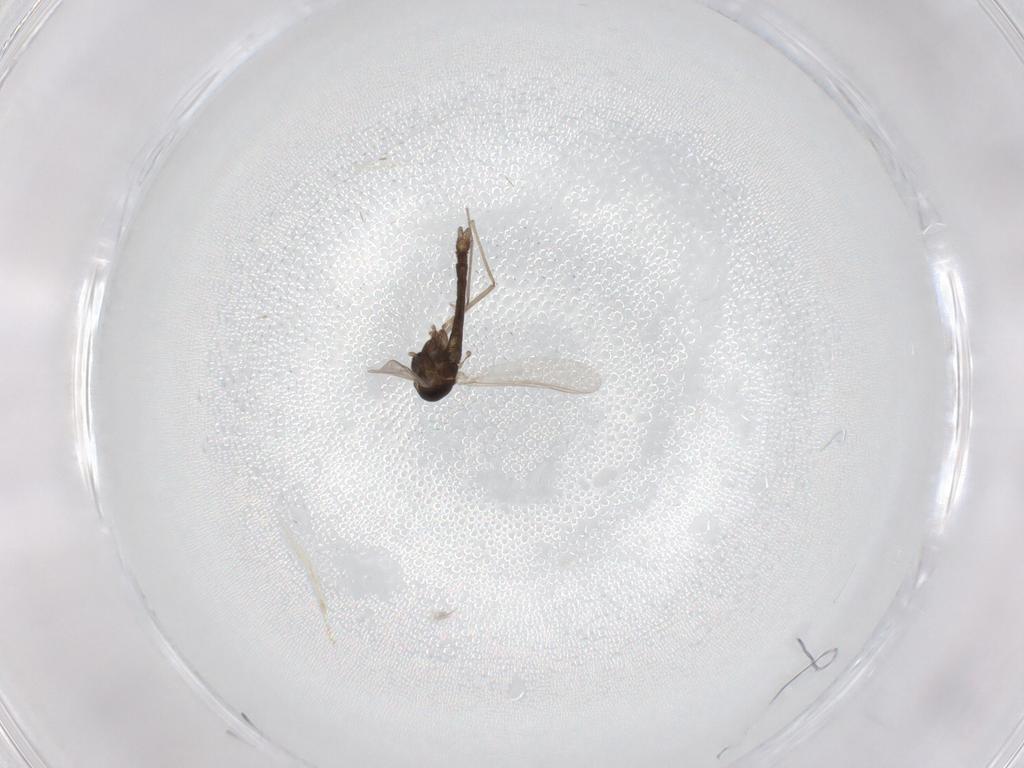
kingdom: Animalia
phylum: Arthropoda
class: Insecta
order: Diptera
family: Chironomidae
